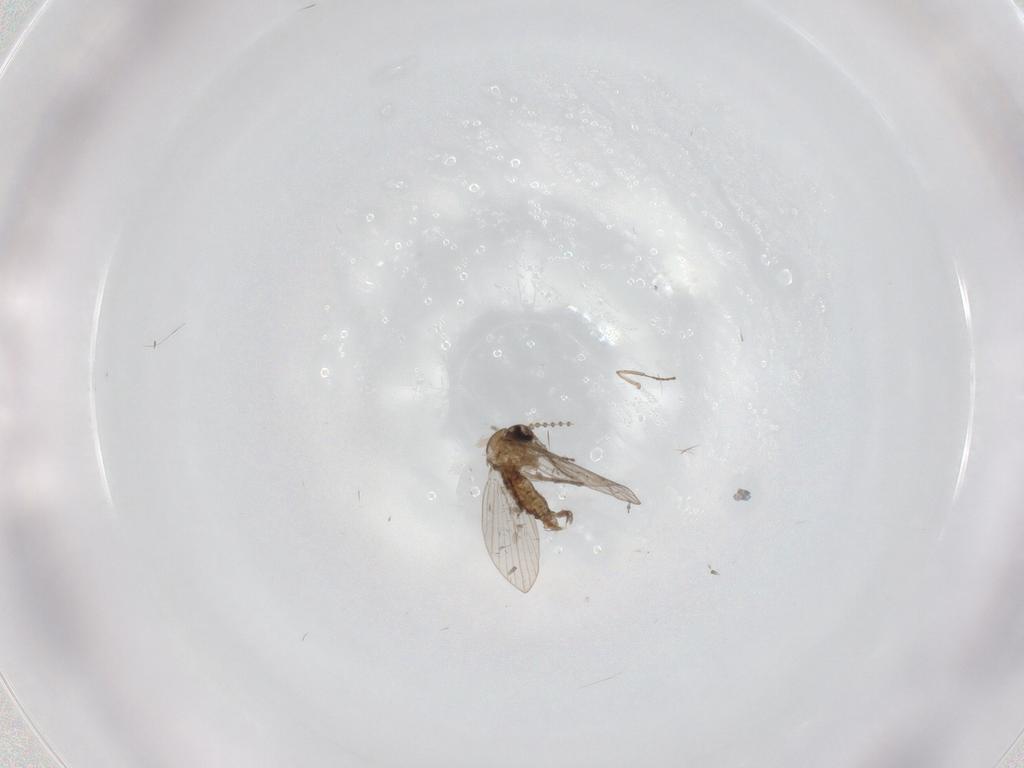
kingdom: Animalia
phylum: Arthropoda
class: Insecta
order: Diptera
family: Psychodidae
